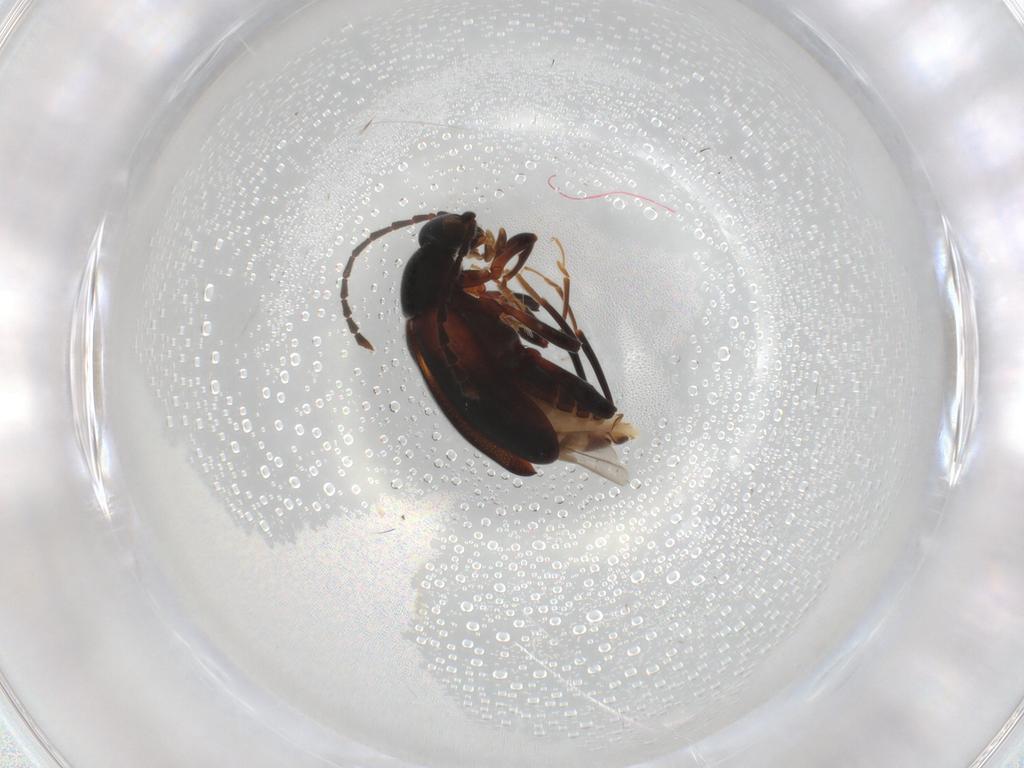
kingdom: Animalia
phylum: Arthropoda
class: Insecta
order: Coleoptera
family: Aderidae
